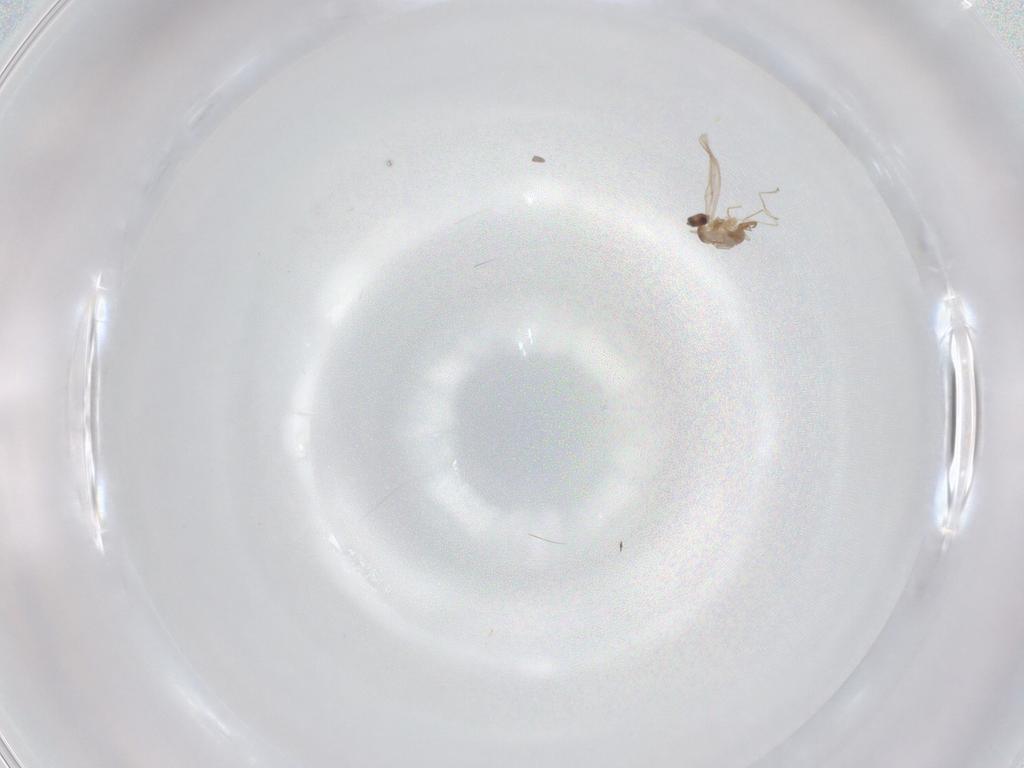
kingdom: Animalia
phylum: Arthropoda
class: Insecta
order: Diptera
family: Cecidomyiidae
